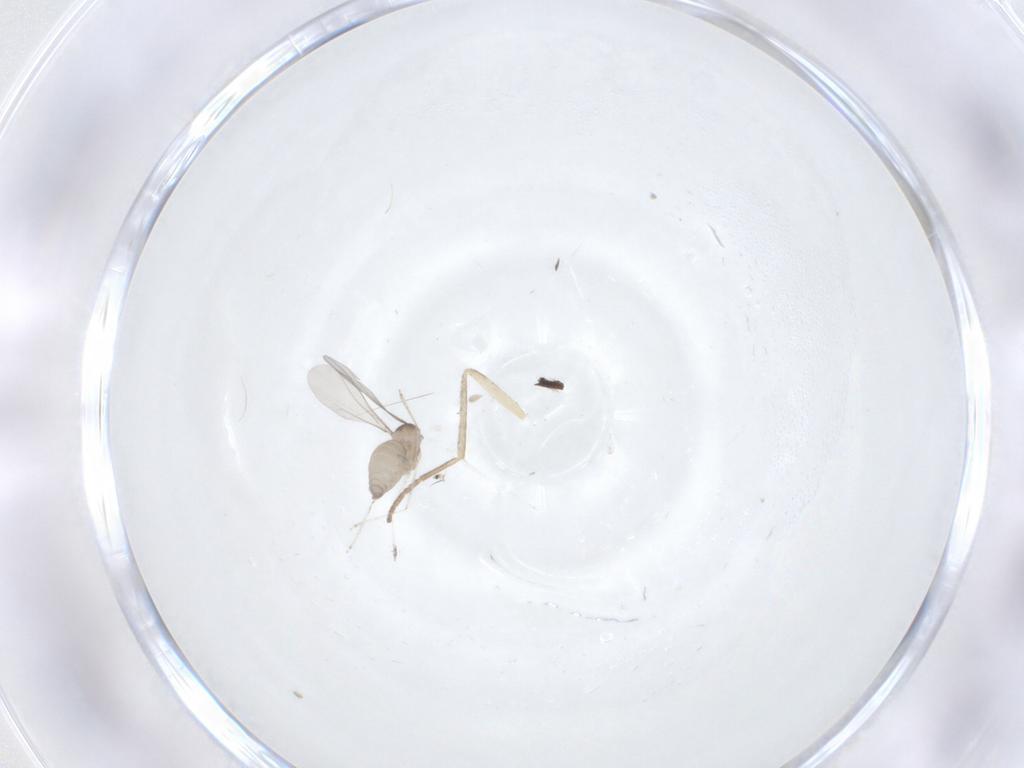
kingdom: Animalia
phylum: Arthropoda
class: Insecta
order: Diptera
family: Cecidomyiidae
